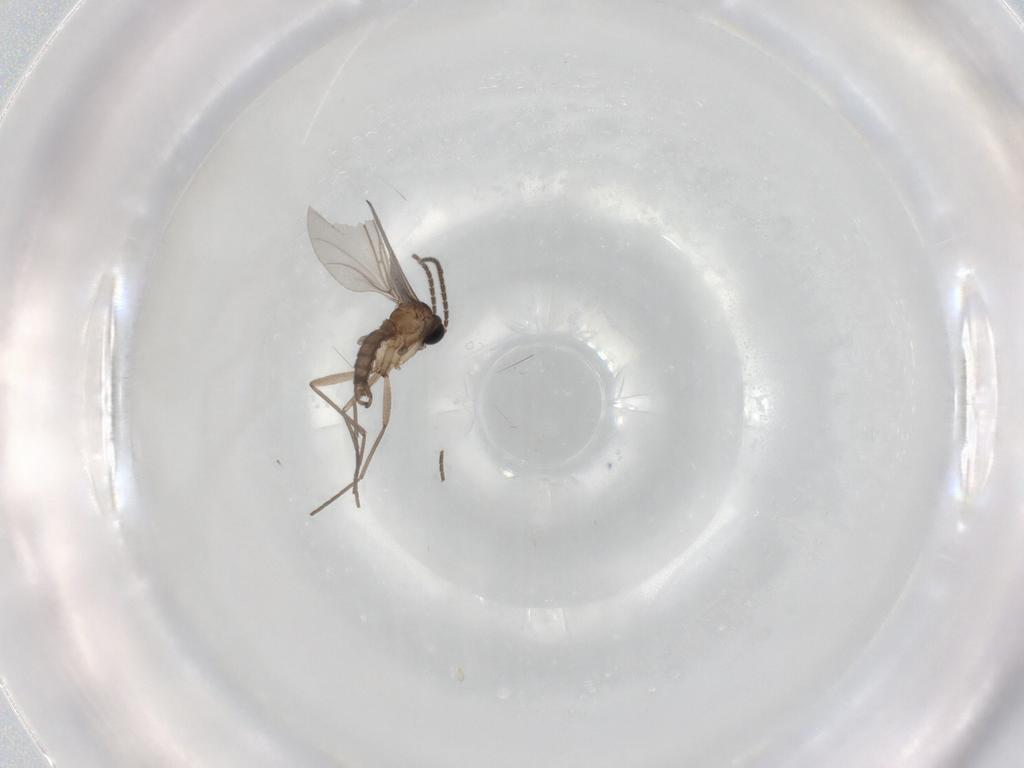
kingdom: Animalia
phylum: Arthropoda
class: Insecta
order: Diptera
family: Sciaridae
